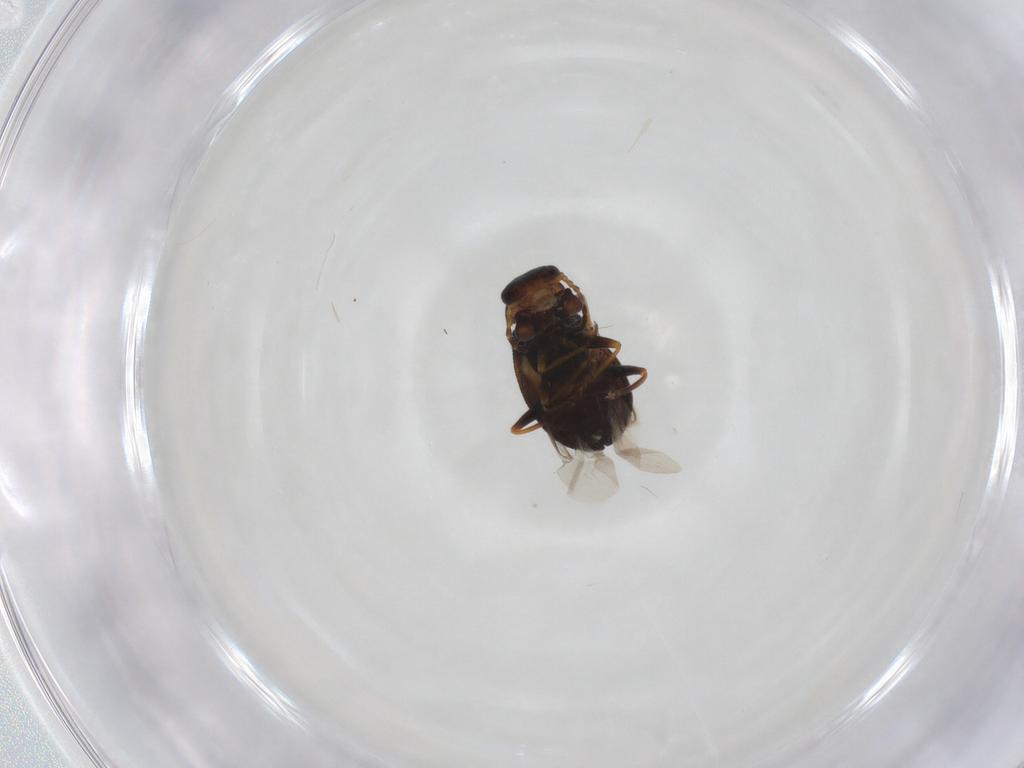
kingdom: Animalia
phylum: Arthropoda
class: Insecta
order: Coleoptera
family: Melyridae
